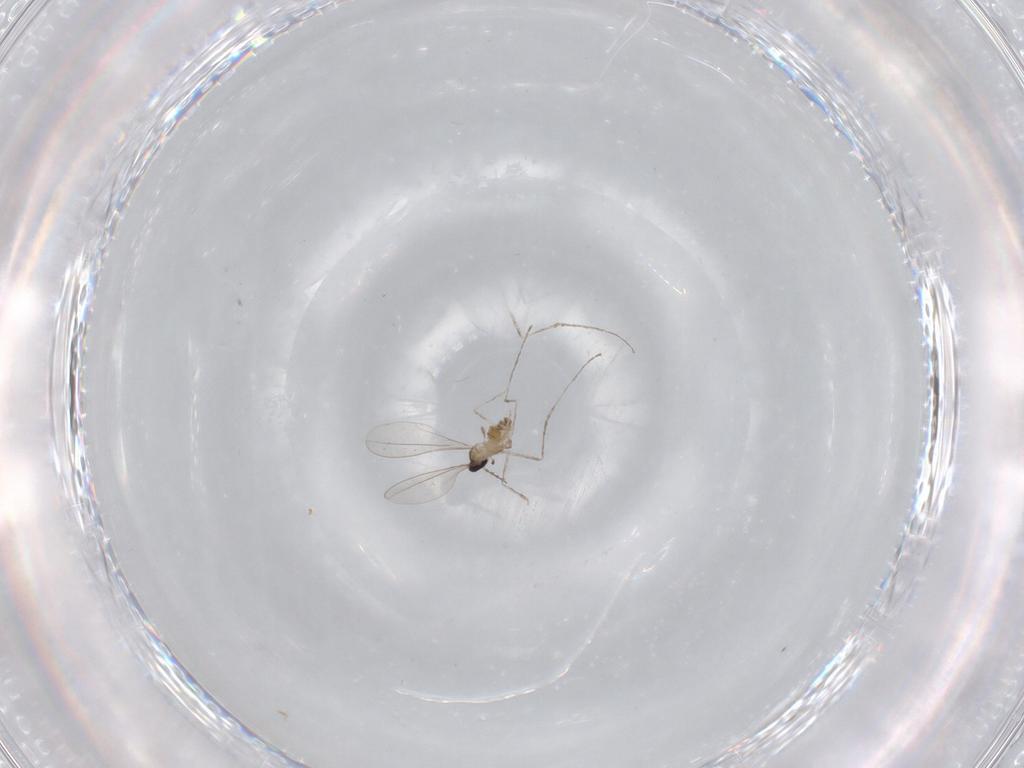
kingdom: Animalia
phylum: Arthropoda
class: Insecta
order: Diptera
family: Cecidomyiidae
